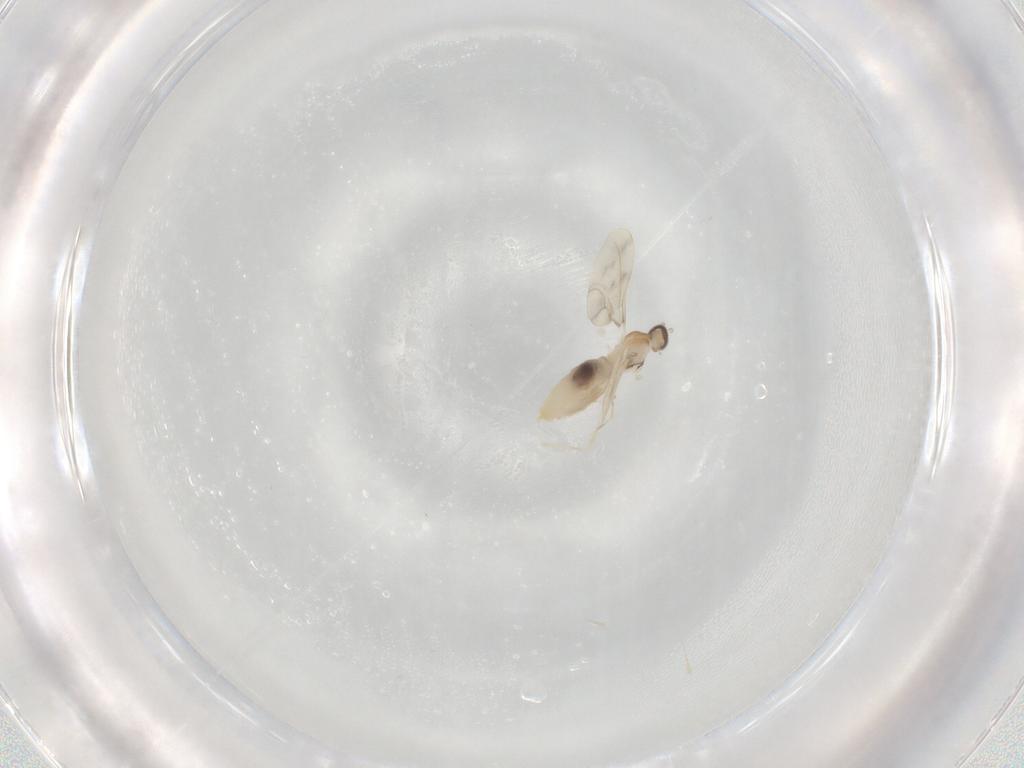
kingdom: Animalia
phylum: Arthropoda
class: Insecta
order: Diptera
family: Cecidomyiidae
